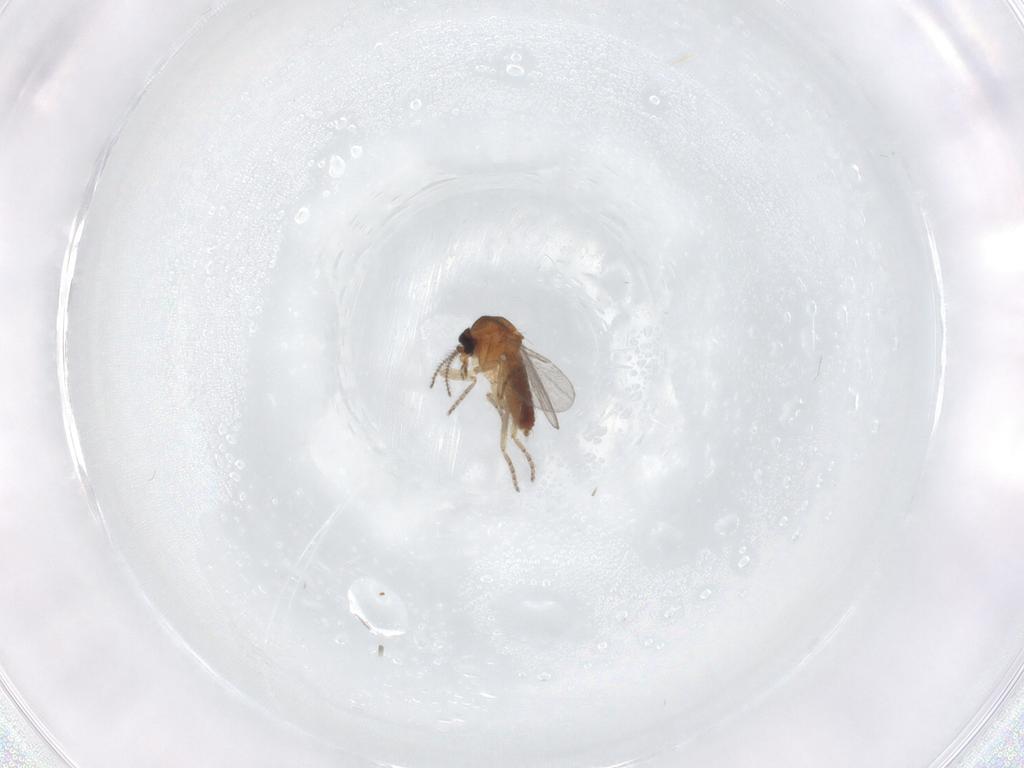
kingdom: Animalia
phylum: Arthropoda
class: Insecta
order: Diptera
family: Ceratopogonidae
